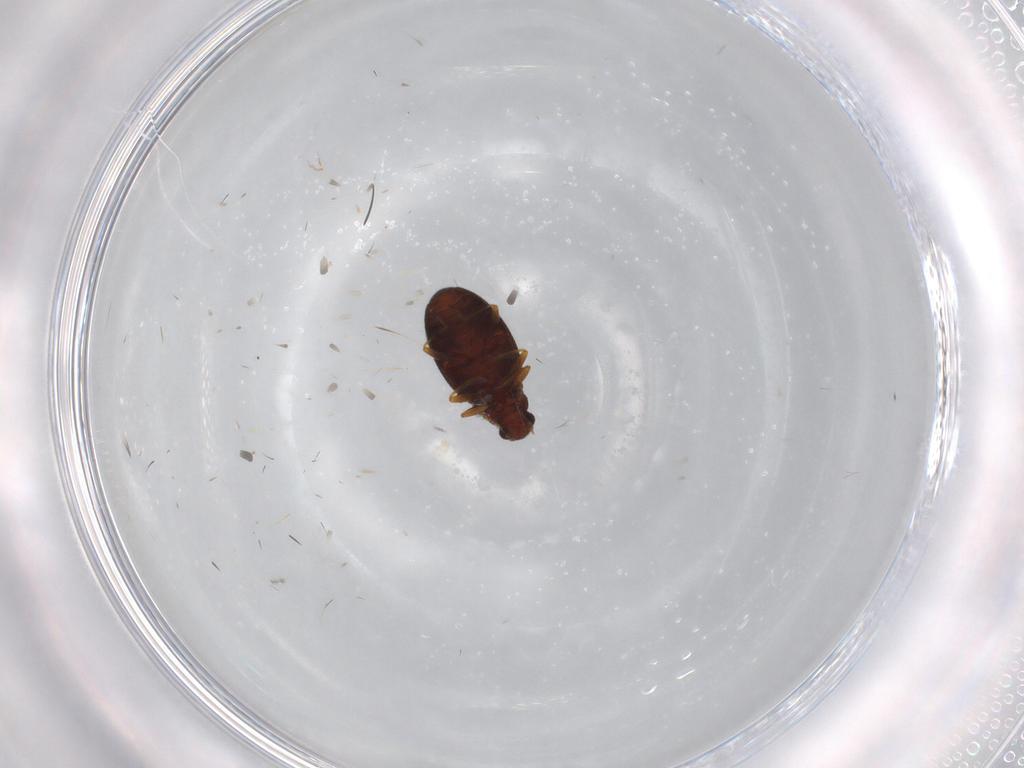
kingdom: Animalia
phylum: Arthropoda
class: Insecta
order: Coleoptera
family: Latridiidae
